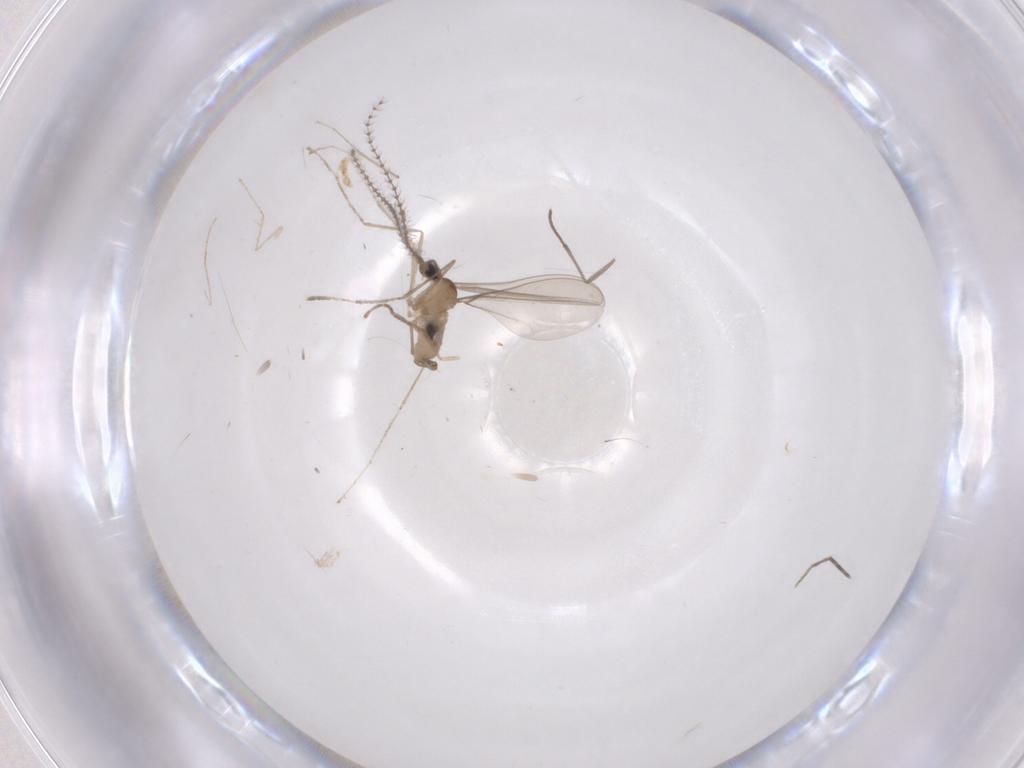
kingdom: Animalia
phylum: Arthropoda
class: Insecta
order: Diptera
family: Cecidomyiidae
